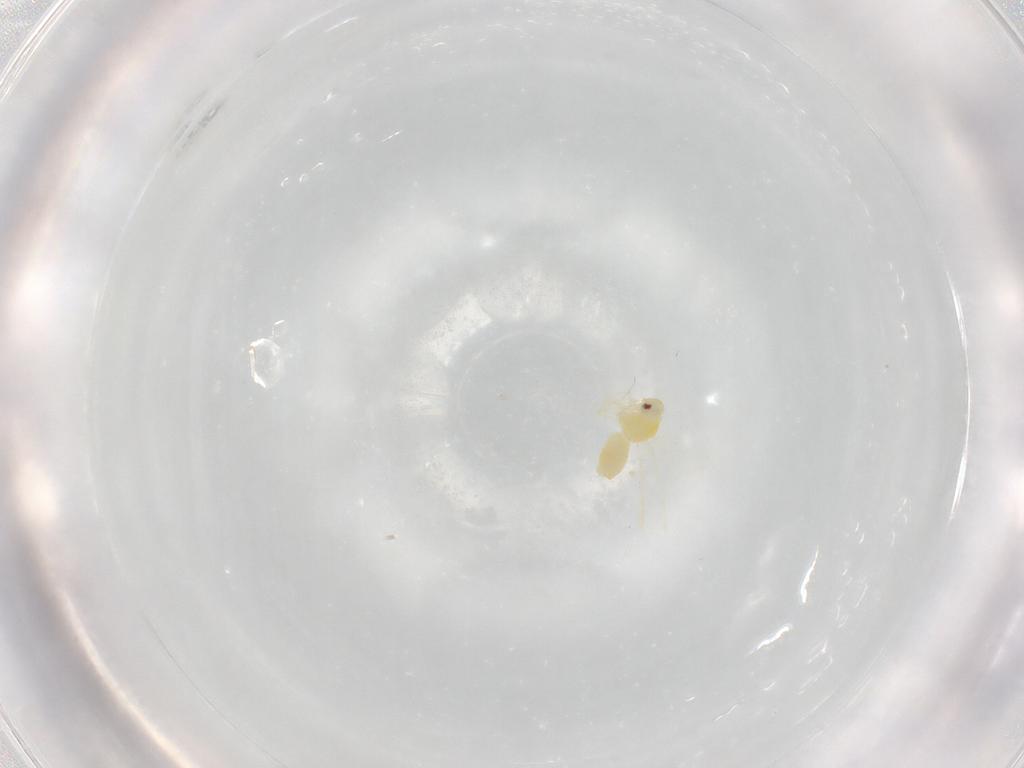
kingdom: Animalia
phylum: Arthropoda
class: Insecta
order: Hemiptera
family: Aleyrodidae
